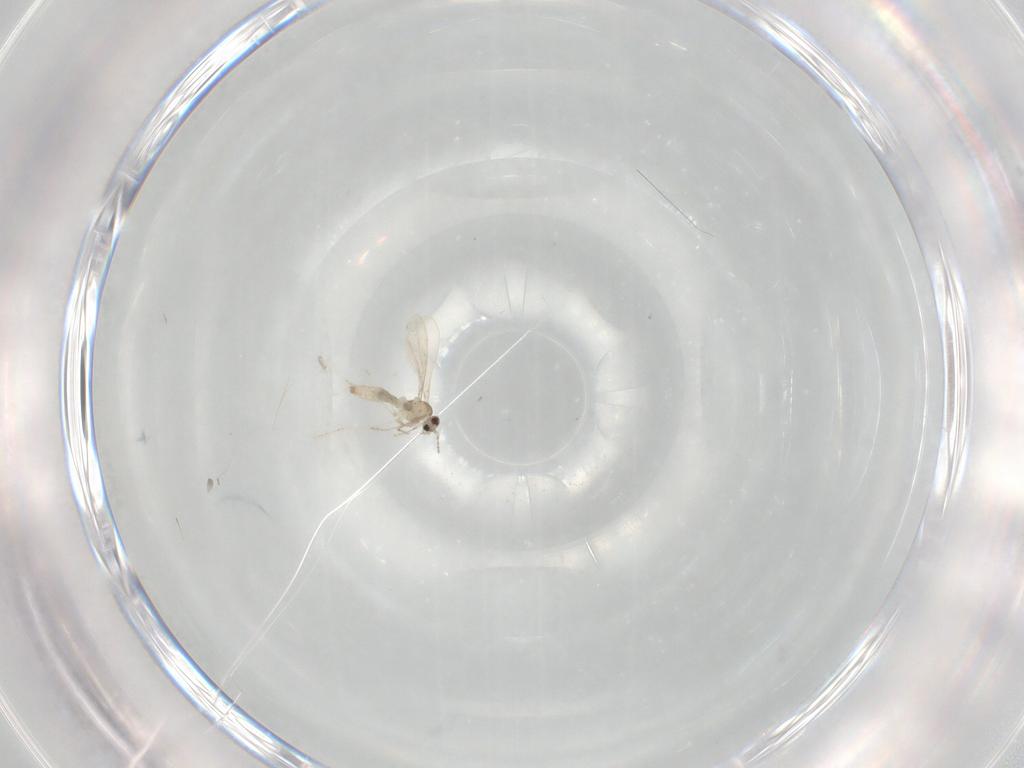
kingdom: Animalia
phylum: Arthropoda
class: Insecta
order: Diptera
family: Cecidomyiidae
